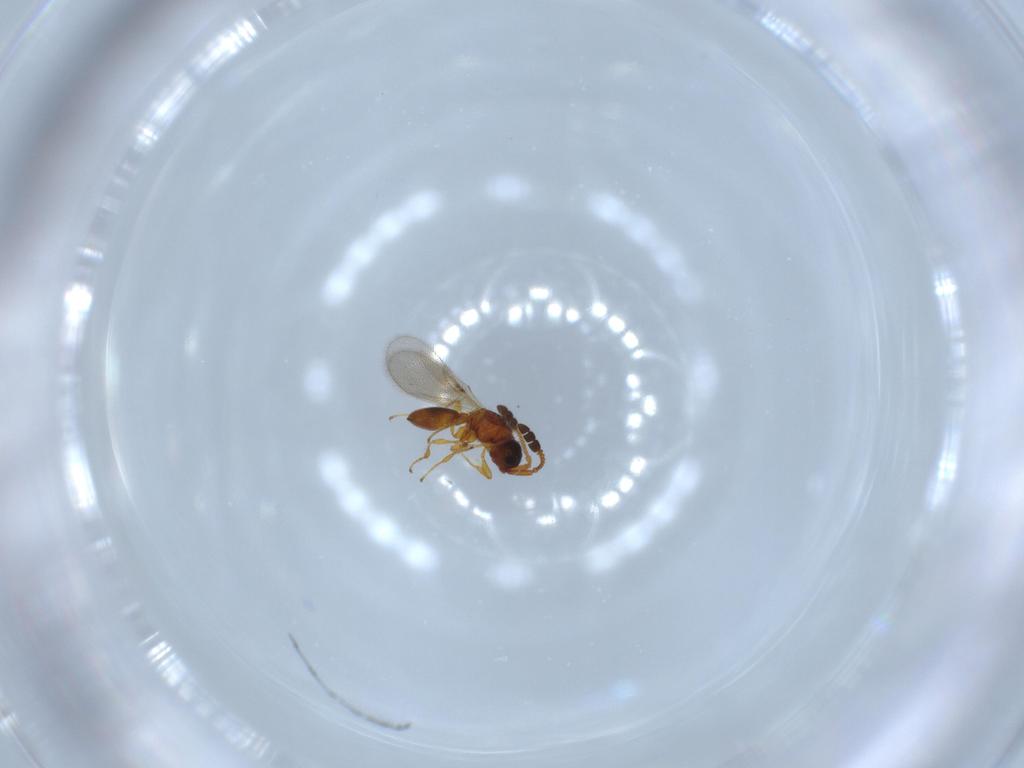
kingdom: Animalia
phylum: Arthropoda
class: Insecta
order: Hymenoptera
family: Diapriidae
